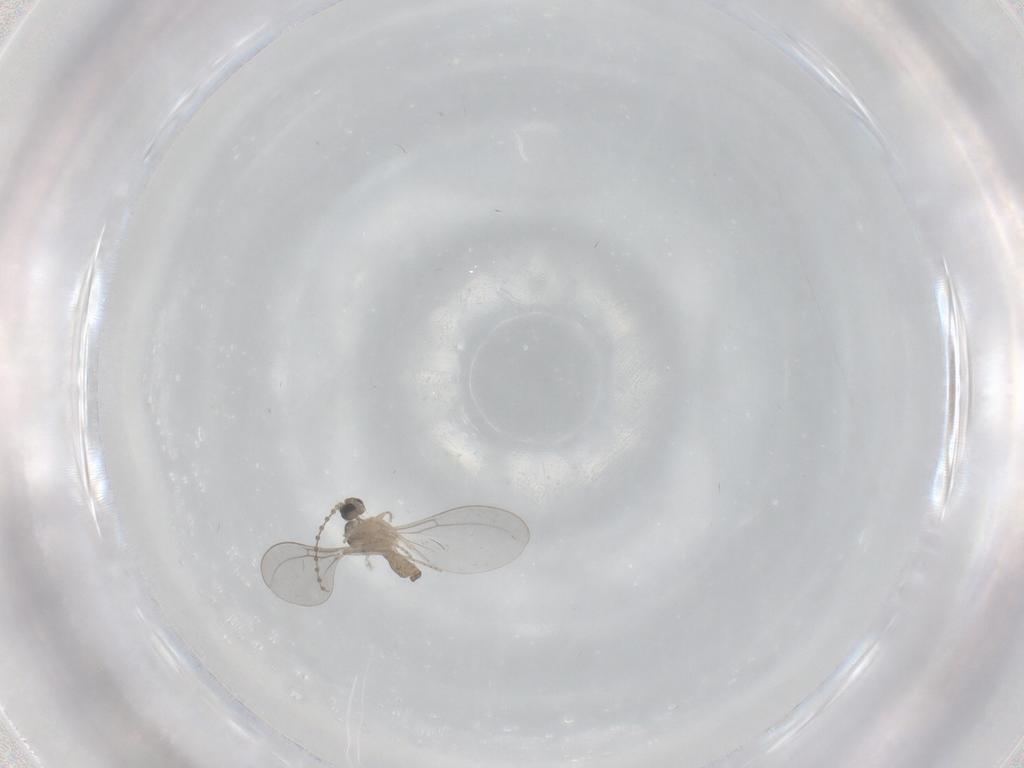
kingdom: Animalia
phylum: Arthropoda
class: Insecta
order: Diptera
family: Cecidomyiidae
